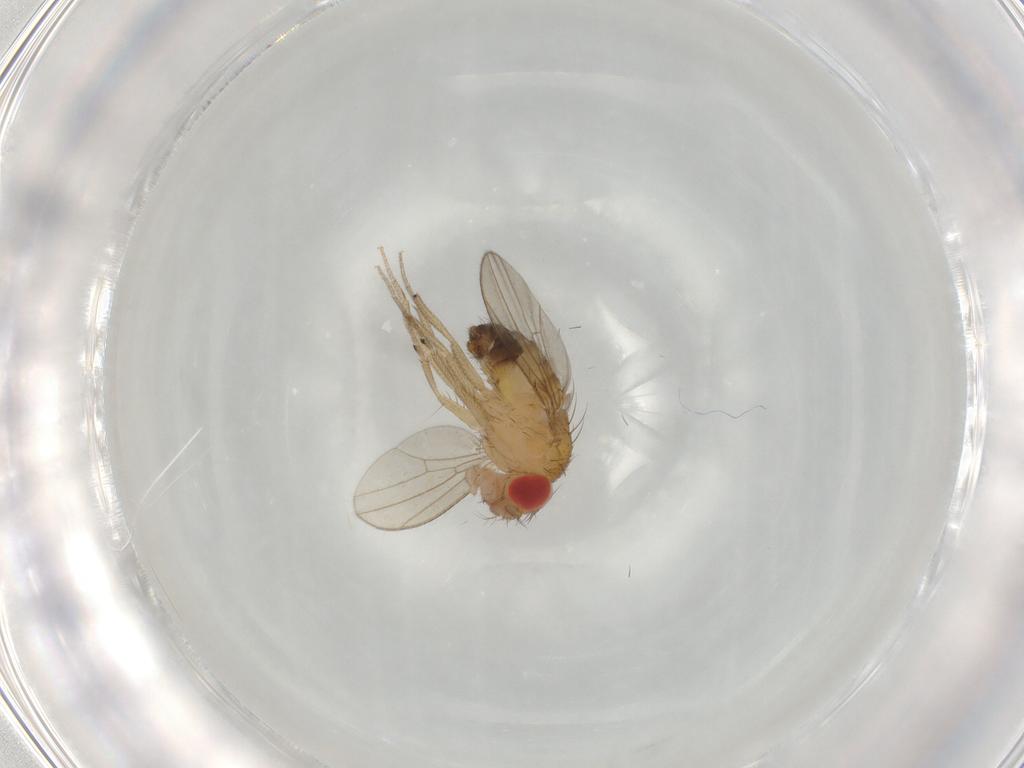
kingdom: Animalia
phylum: Arthropoda
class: Insecta
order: Diptera
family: Drosophilidae
